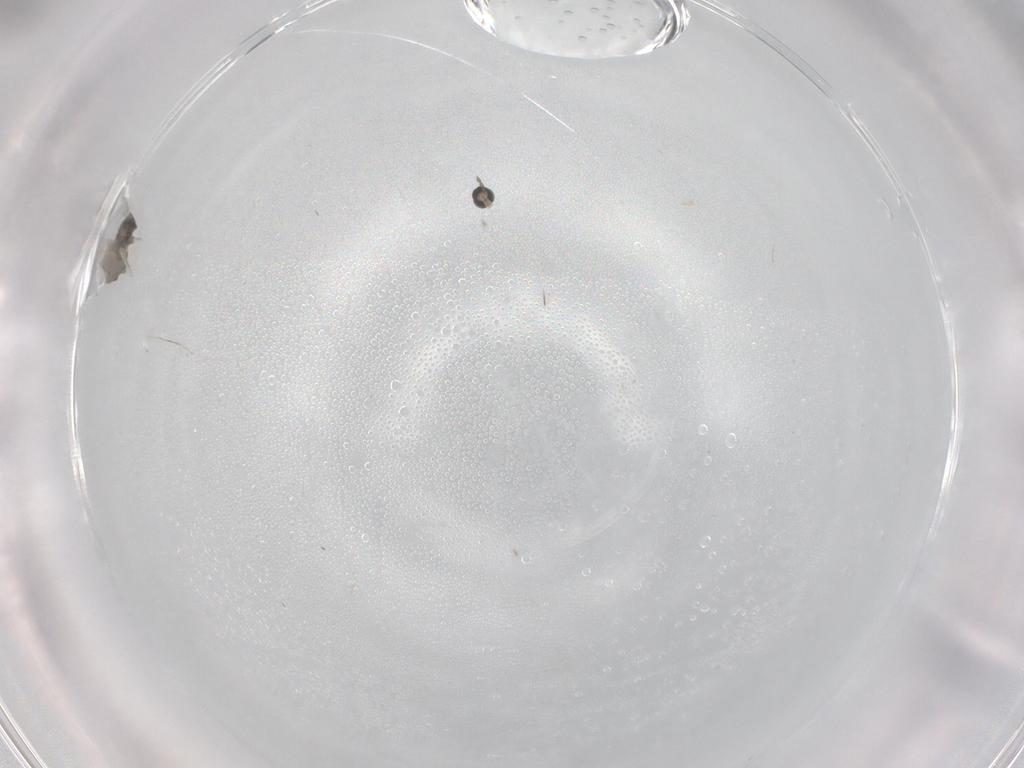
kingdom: Animalia
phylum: Arthropoda
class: Insecta
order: Diptera
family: Cecidomyiidae
